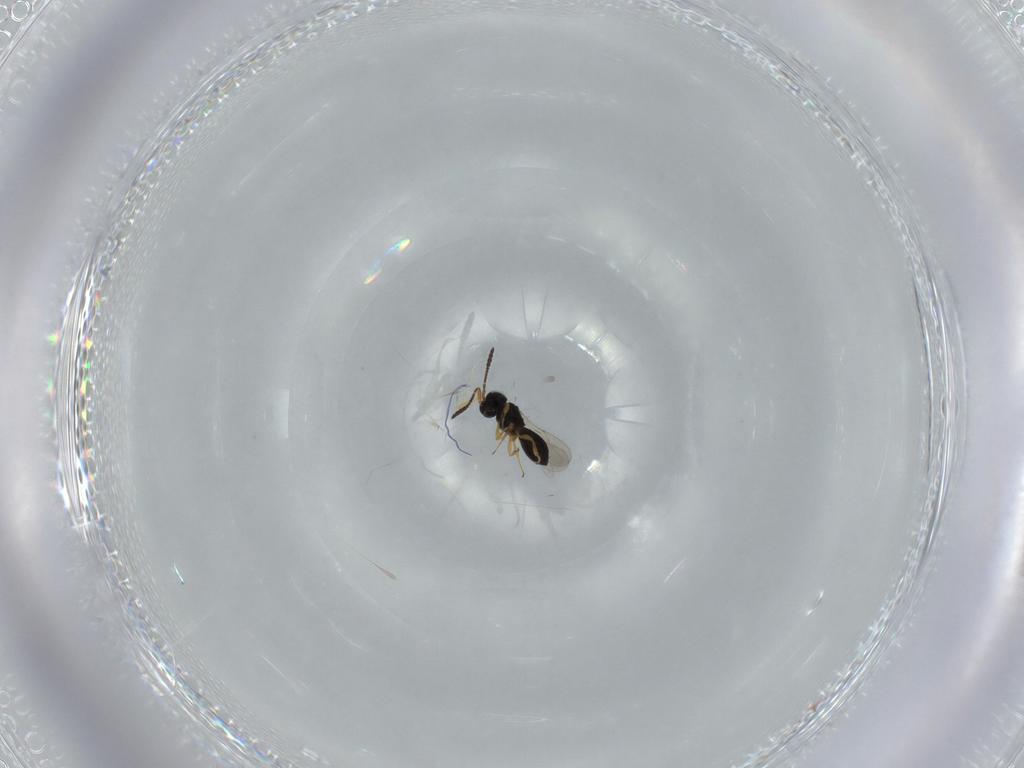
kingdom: Animalia
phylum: Arthropoda
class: Insecta
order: Hymenoptera
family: Scelionidae
